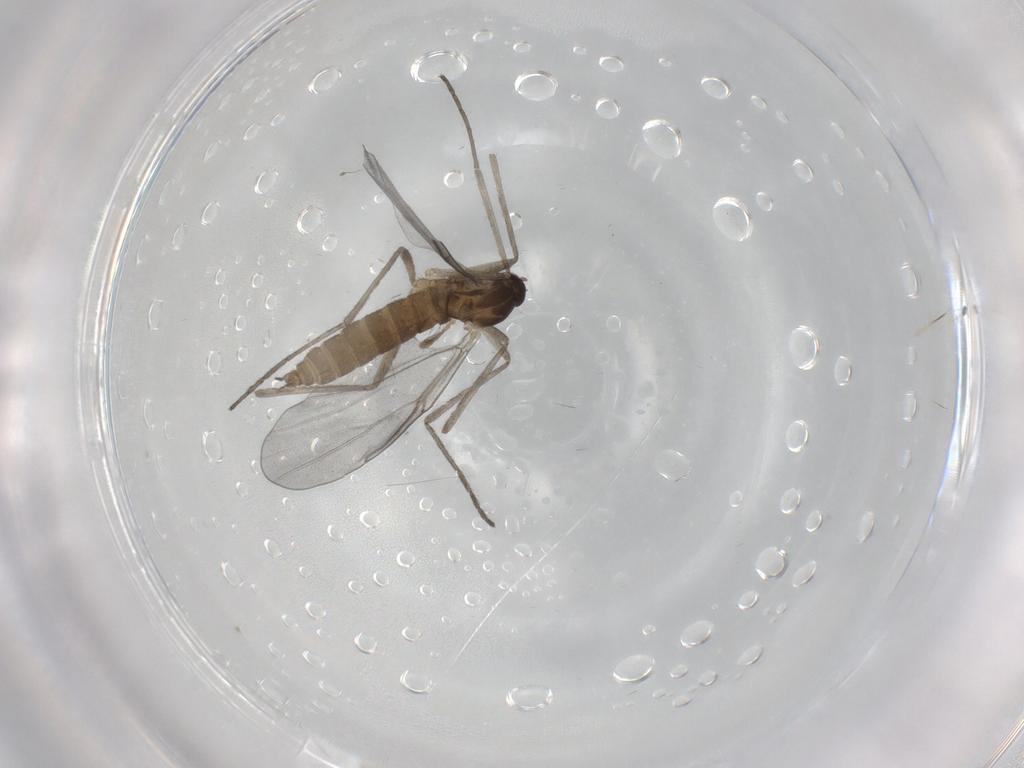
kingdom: Animalia
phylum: Arthropoda
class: Insecta
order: Diptera
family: Cecidomyiidae
